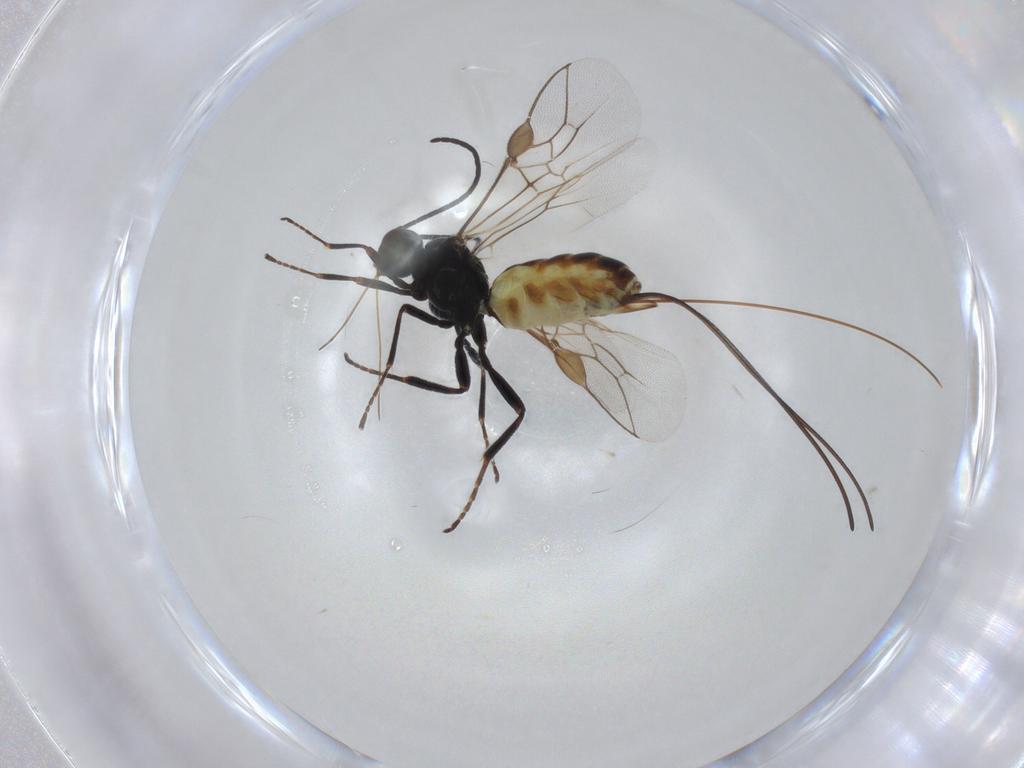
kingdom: Animalia
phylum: Arthropoda
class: Insecta
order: Hymenoptera
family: Braconidae
